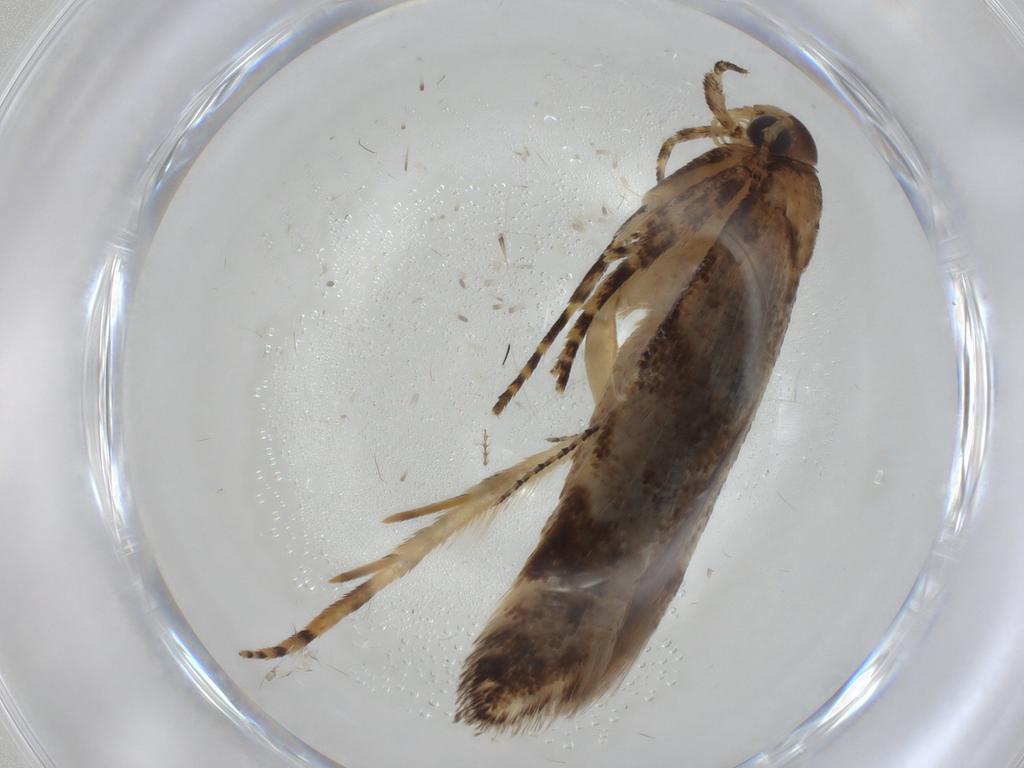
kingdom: Animalia
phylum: Arthropoda
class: Insecta
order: Lepidoptera
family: Gelechiidae
